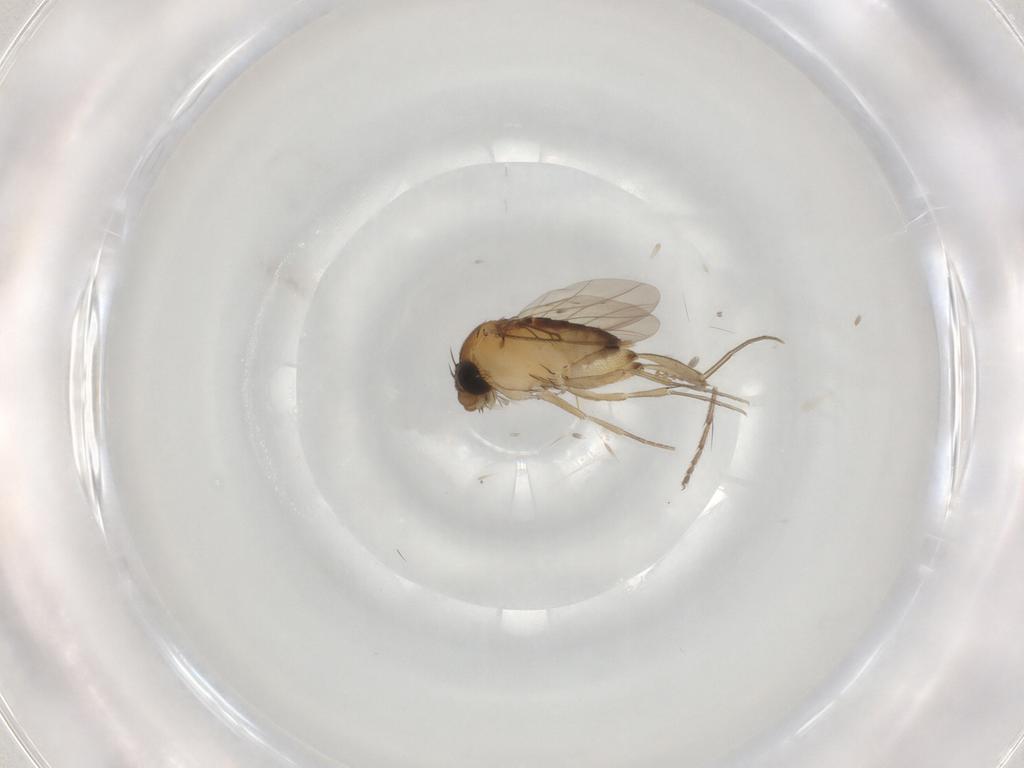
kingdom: Animalia
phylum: Arthropoda
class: Insecta
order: Diptera
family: Cecidomyiidae
